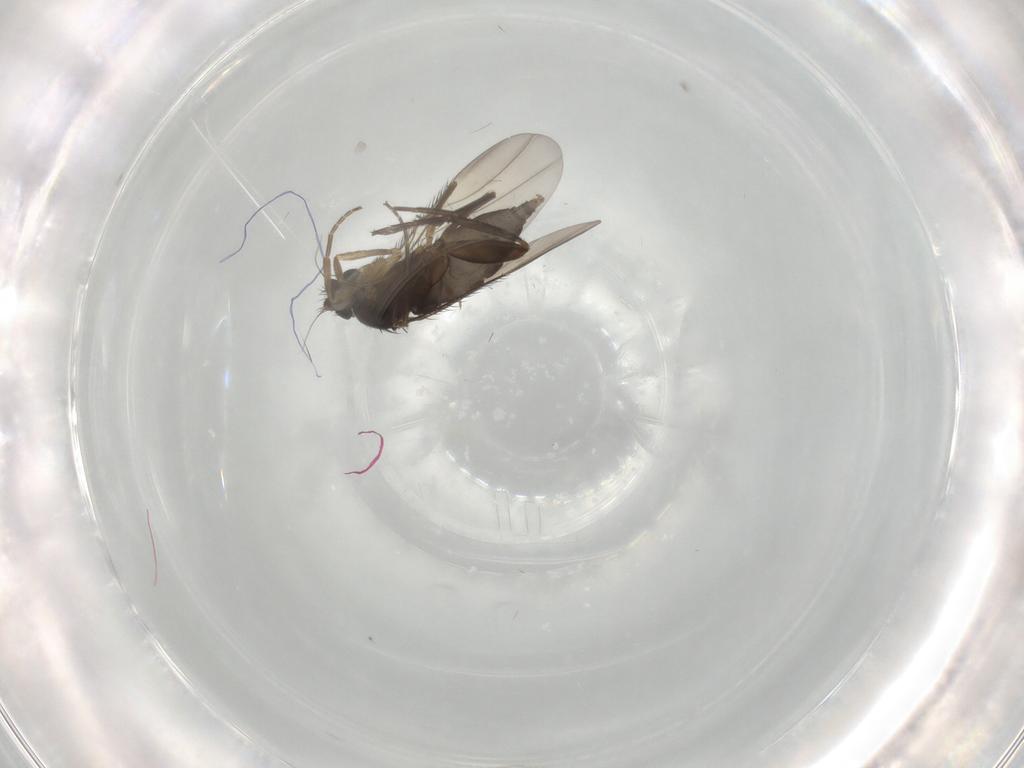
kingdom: Animalia
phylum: Arthropoda
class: Insecta
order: Diptera
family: Phoridae
